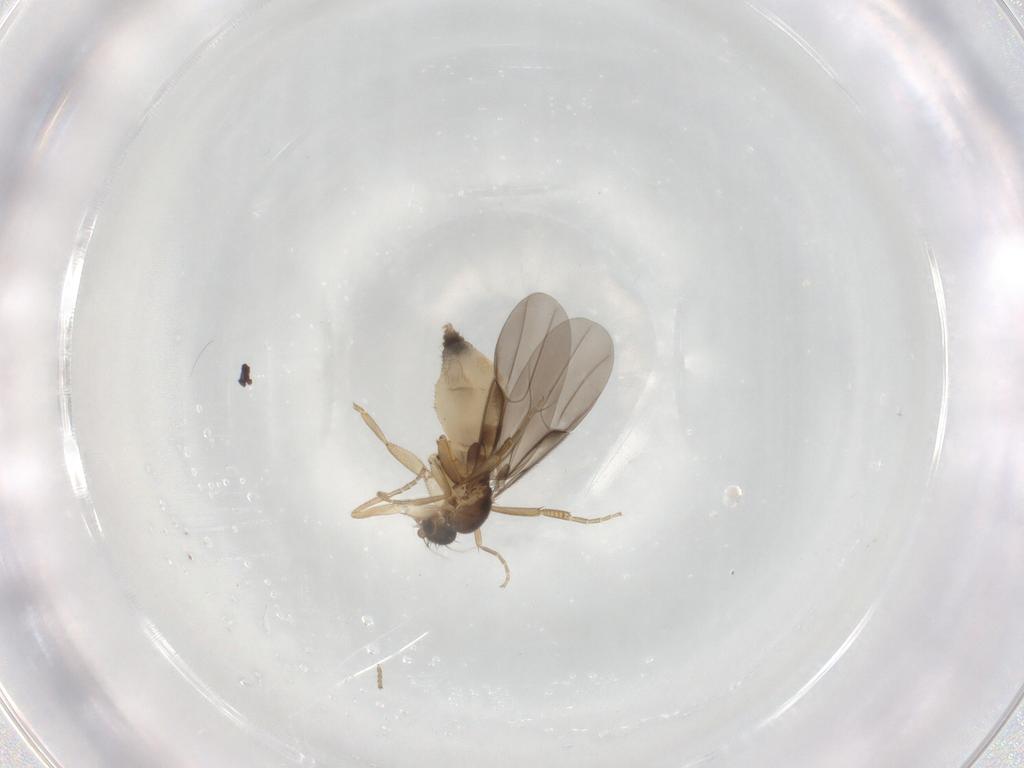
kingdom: Animalia
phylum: Arthropoda
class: Insecta
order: Diptera
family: Phoridae
